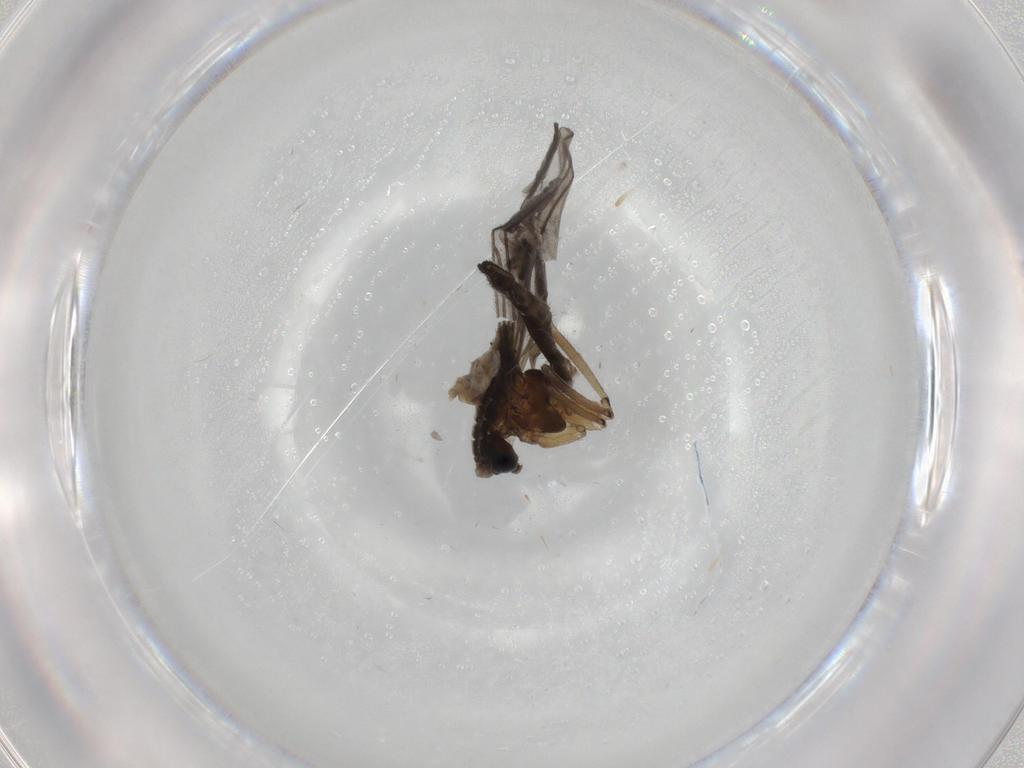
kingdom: Animalia
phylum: Arthropoda
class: Insecta
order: Diptera
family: Cecidomyiidae
